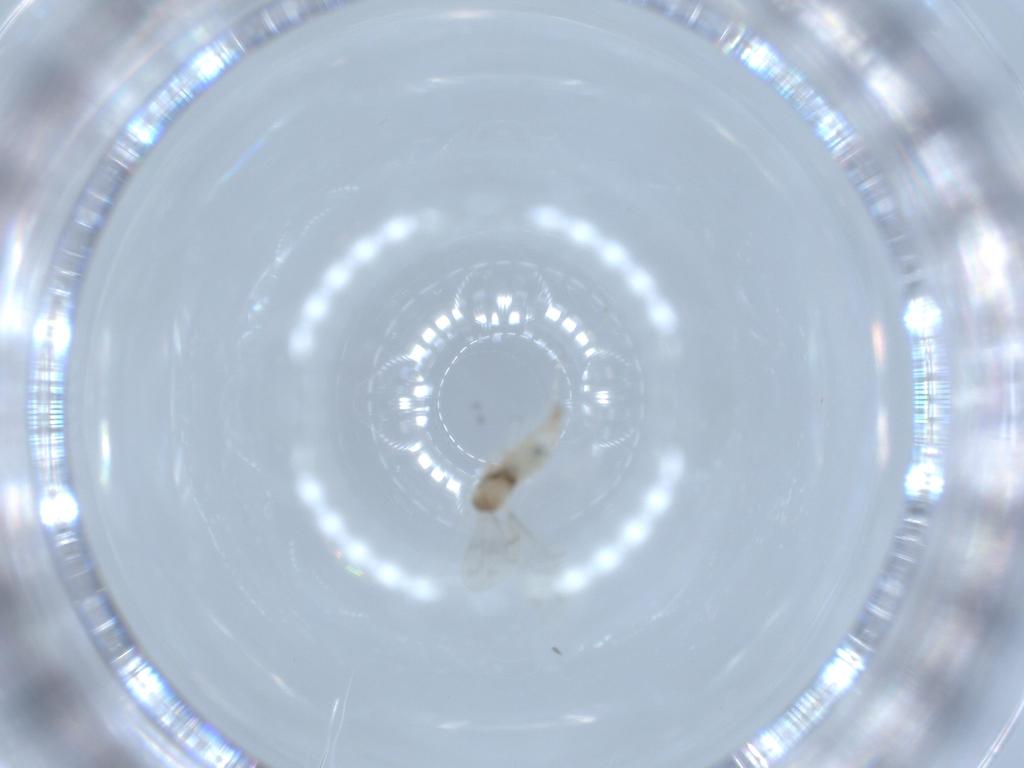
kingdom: Animalia
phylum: Arthropoda
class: Insecta
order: Diptera
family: Cecidomyiidae
